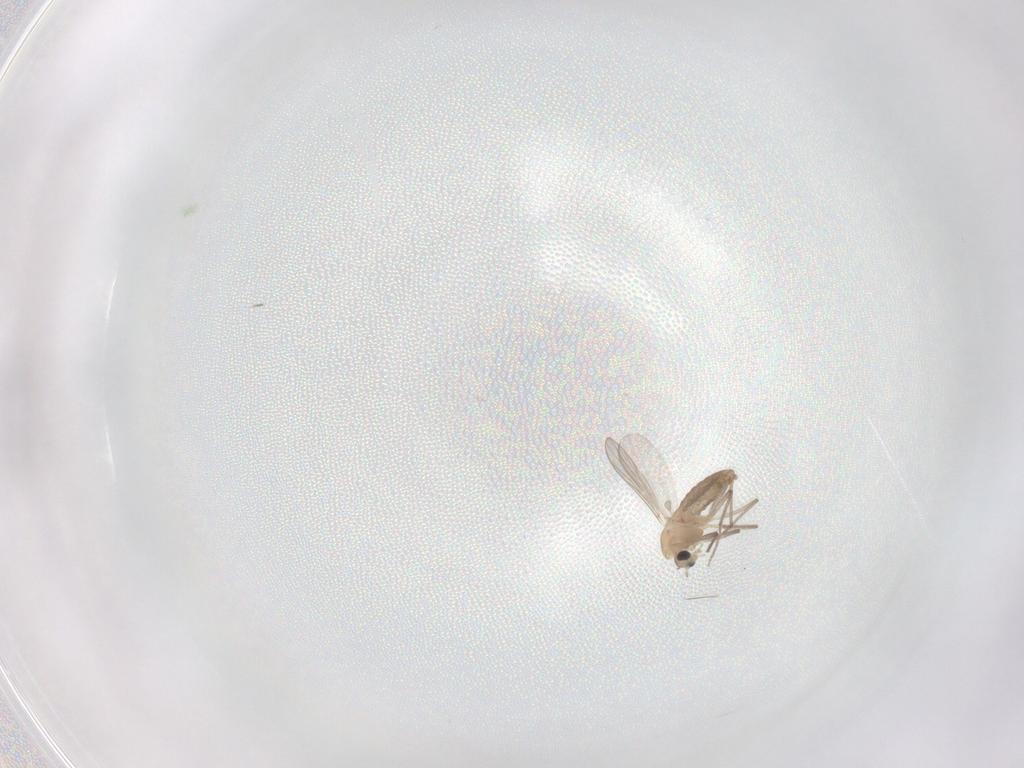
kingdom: Animalia
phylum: Arthropoda
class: Insecta
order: Diptera
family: Chironomidae
